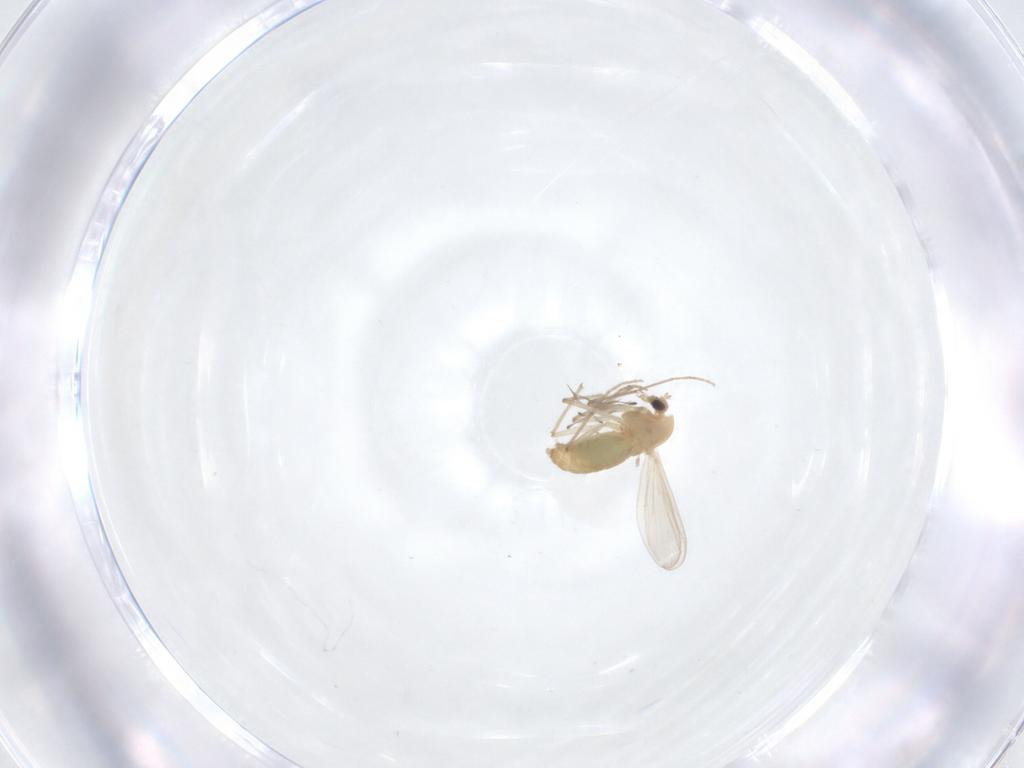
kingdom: Animalia
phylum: Arthropoda
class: Insecta
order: Diptera
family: Chironomidae
